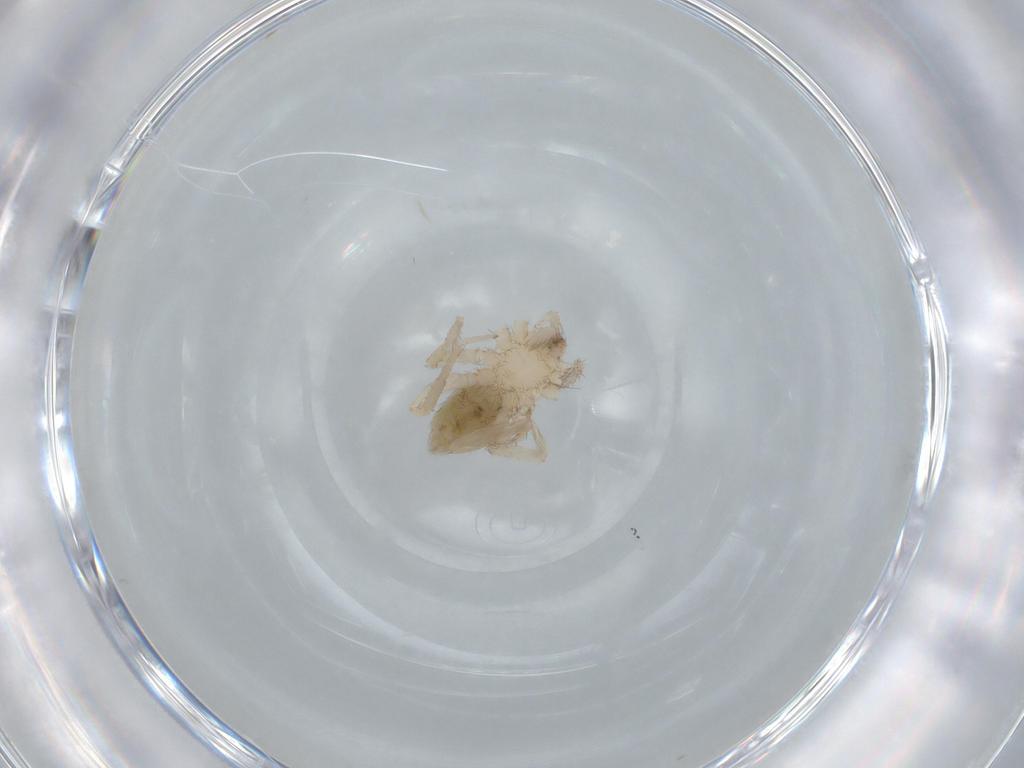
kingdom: Animalia
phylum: Arthropoda
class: Arachnida
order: Araneae
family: Oonopidae
